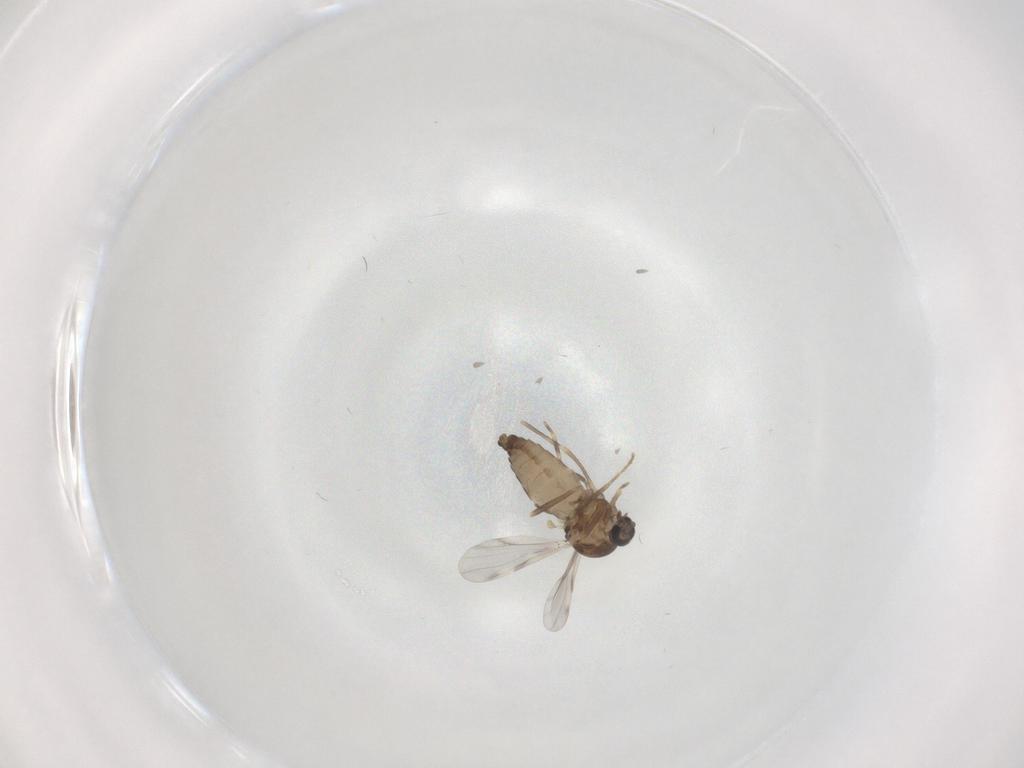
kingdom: Animalia
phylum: Arthropoda
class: Insecta
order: Diptera
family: Ceratopogonidae
